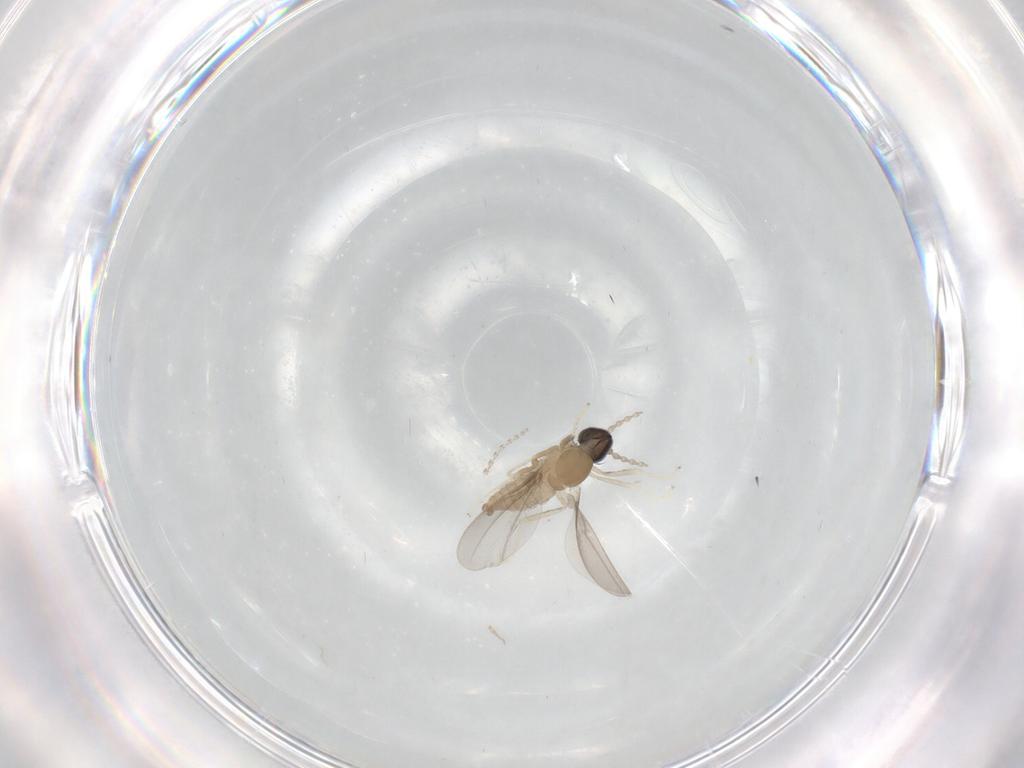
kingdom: Animalia
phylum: Arthropoda
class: Insecta
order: Diptera
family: Cecidomyiidae
